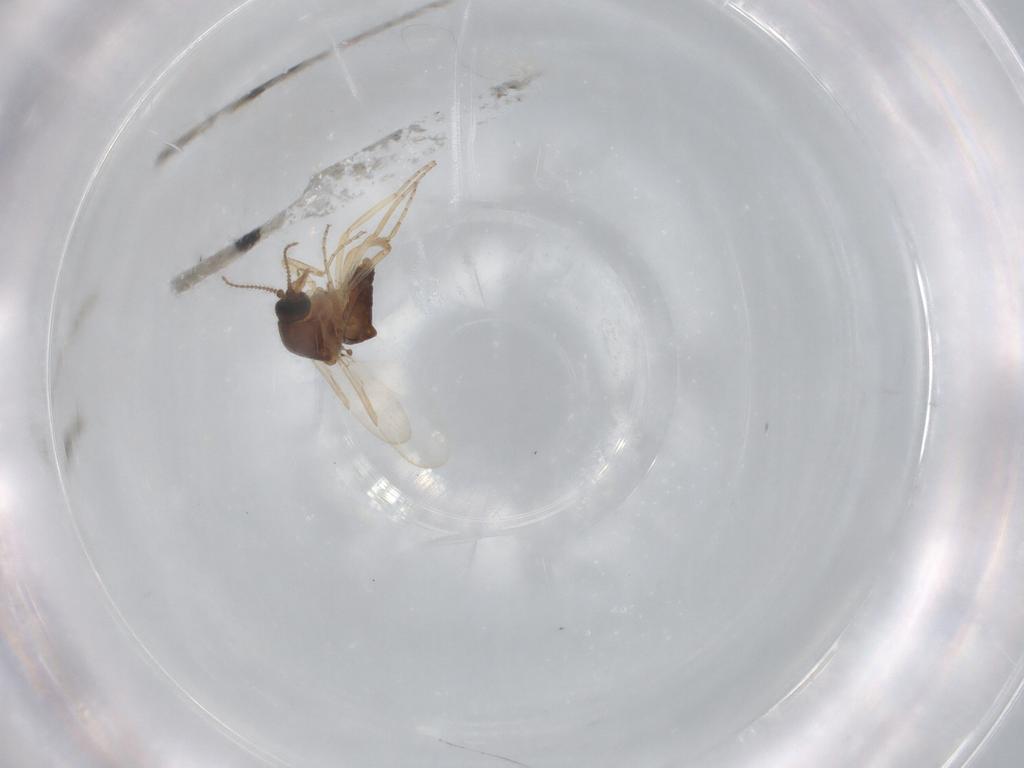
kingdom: Animalia
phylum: Arthropoda
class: Insecta
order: Diptera
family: Ceratopogonidae
